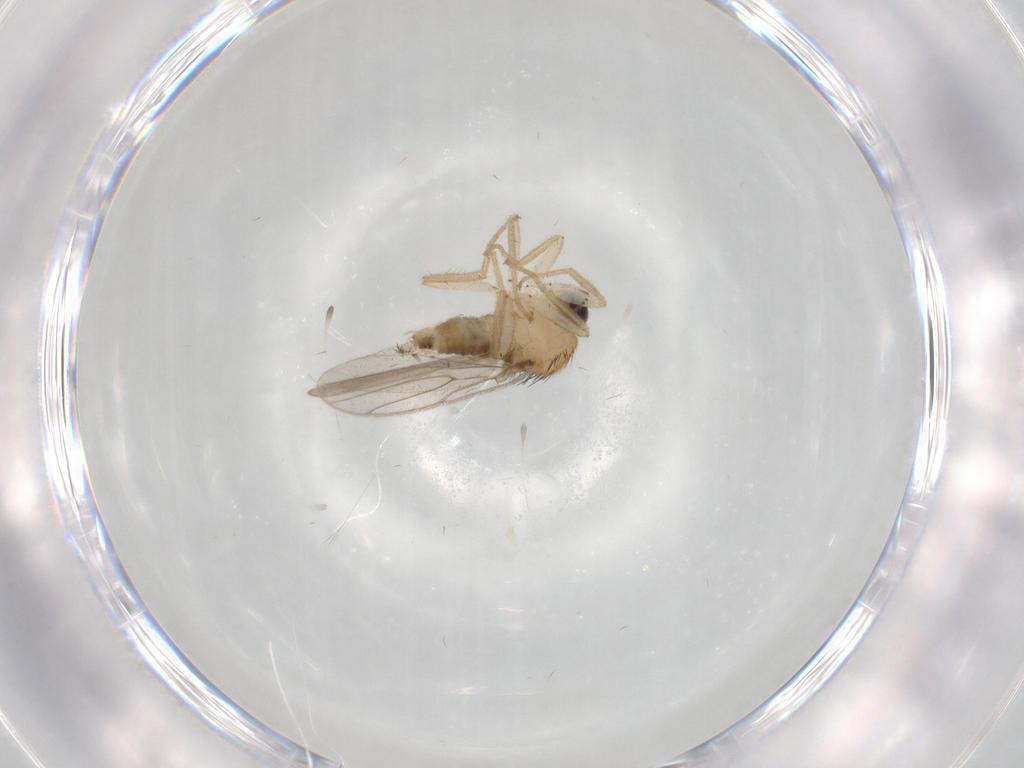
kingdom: Animalia
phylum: Arthropoda
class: Insecta
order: Diptera
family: Hybotidae
